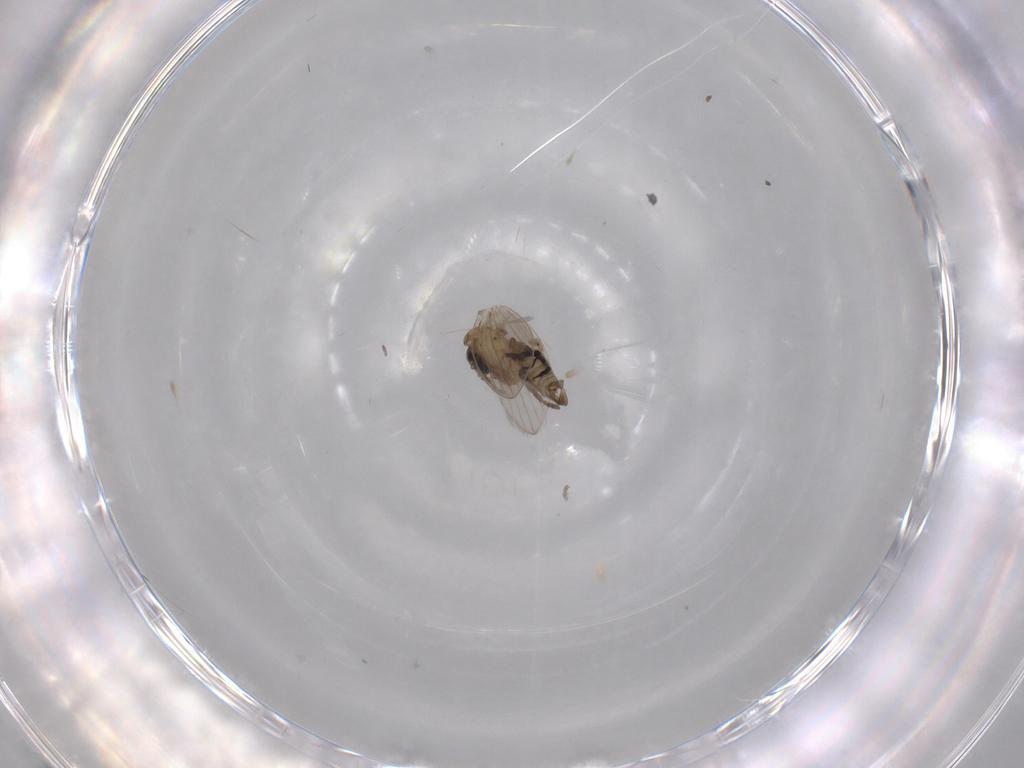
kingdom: Animalia
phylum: Arthropoda
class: Insecta
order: Diptera
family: Psychodidae
